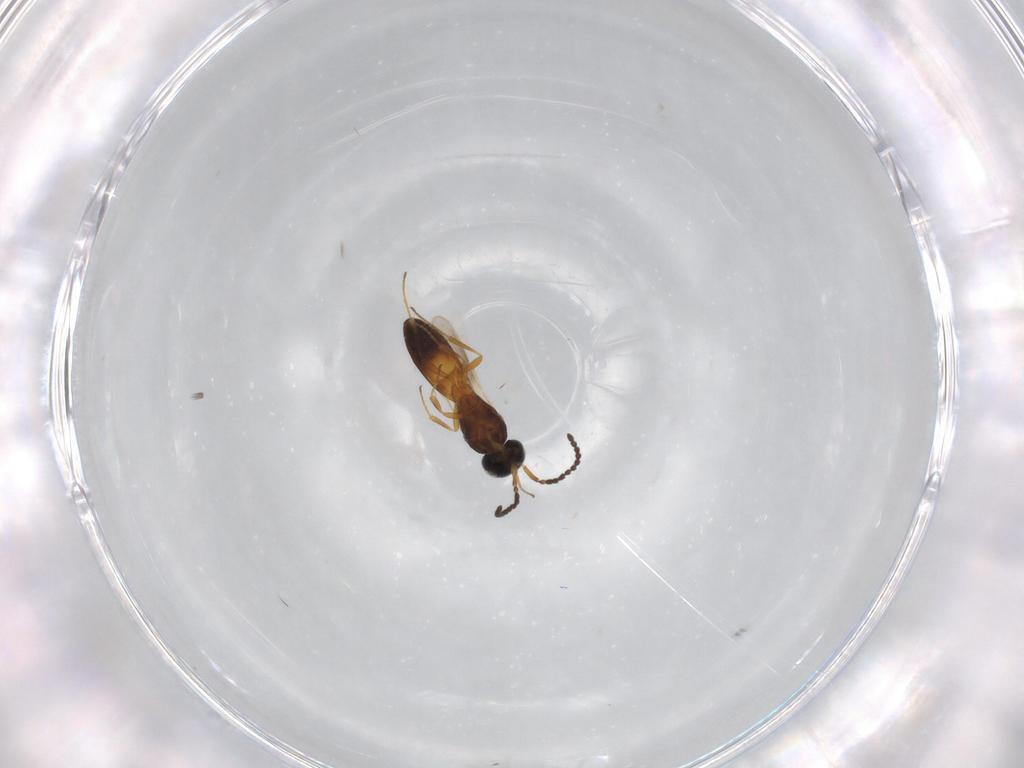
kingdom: Animalia
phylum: Arthropoda
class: Insecta
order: Hymenoptera
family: Scelionidae
